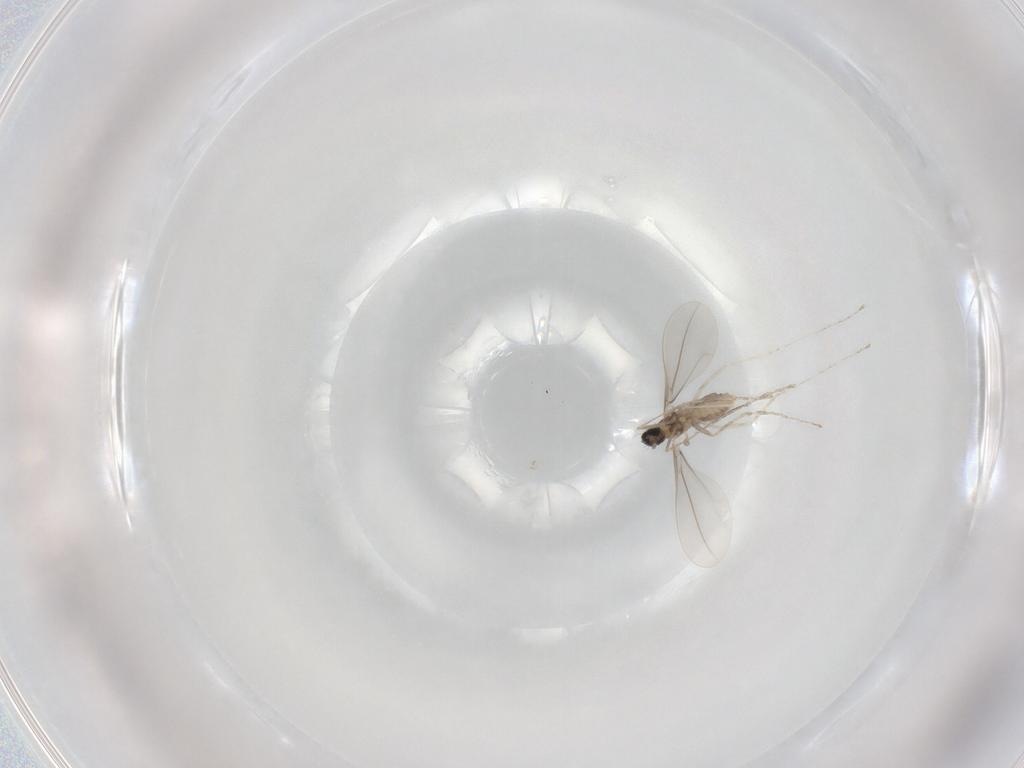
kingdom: Animalia
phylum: Arthropoda
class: Insecta
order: Diptera
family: Cecidomyiidae
